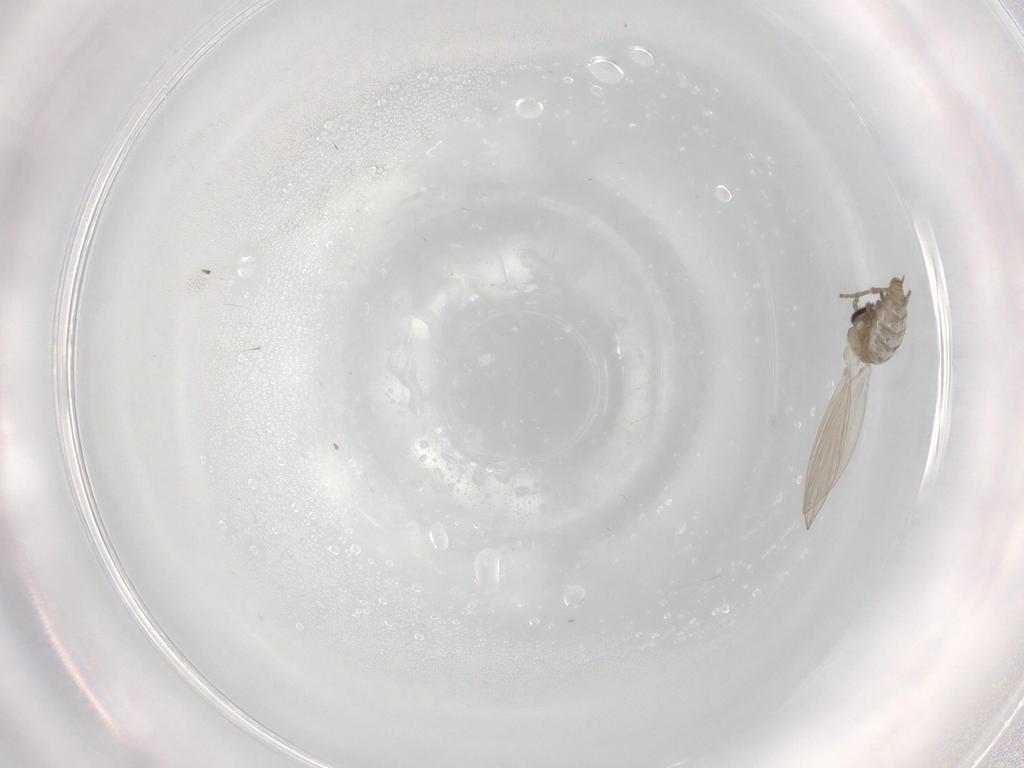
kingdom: Animalia
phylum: Arthropoda
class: Insecta
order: Diptera
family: Psychodidae
